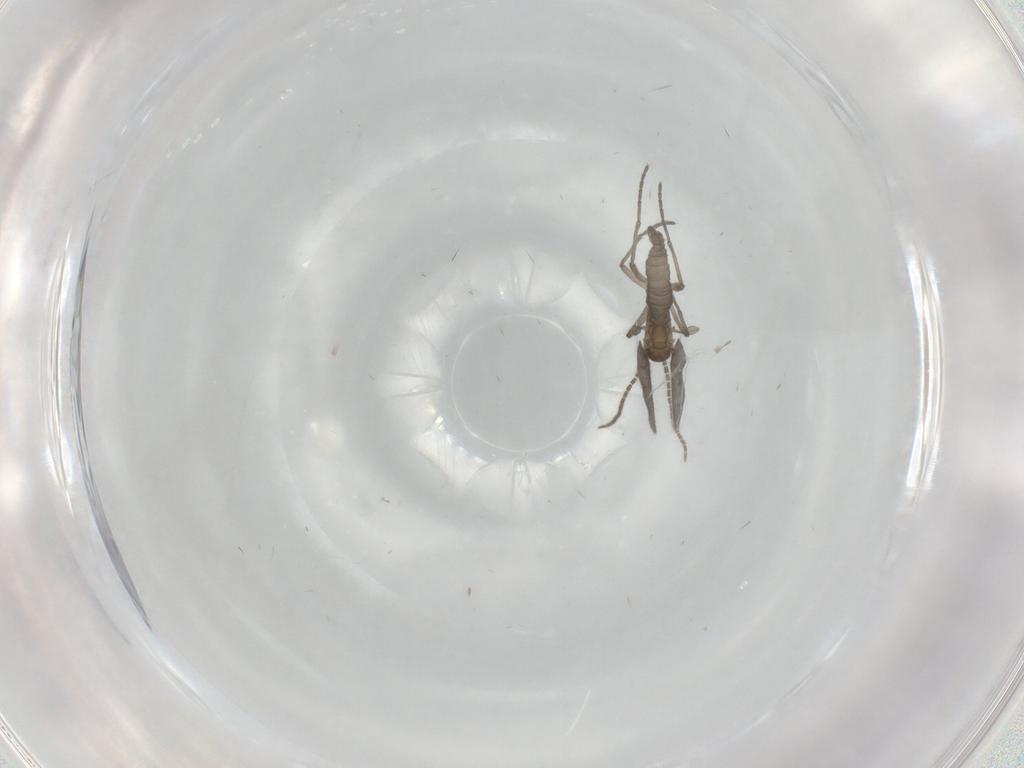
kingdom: Animalia
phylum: Arthropoda
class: Insecta
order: Diptera
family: Sciaridae
